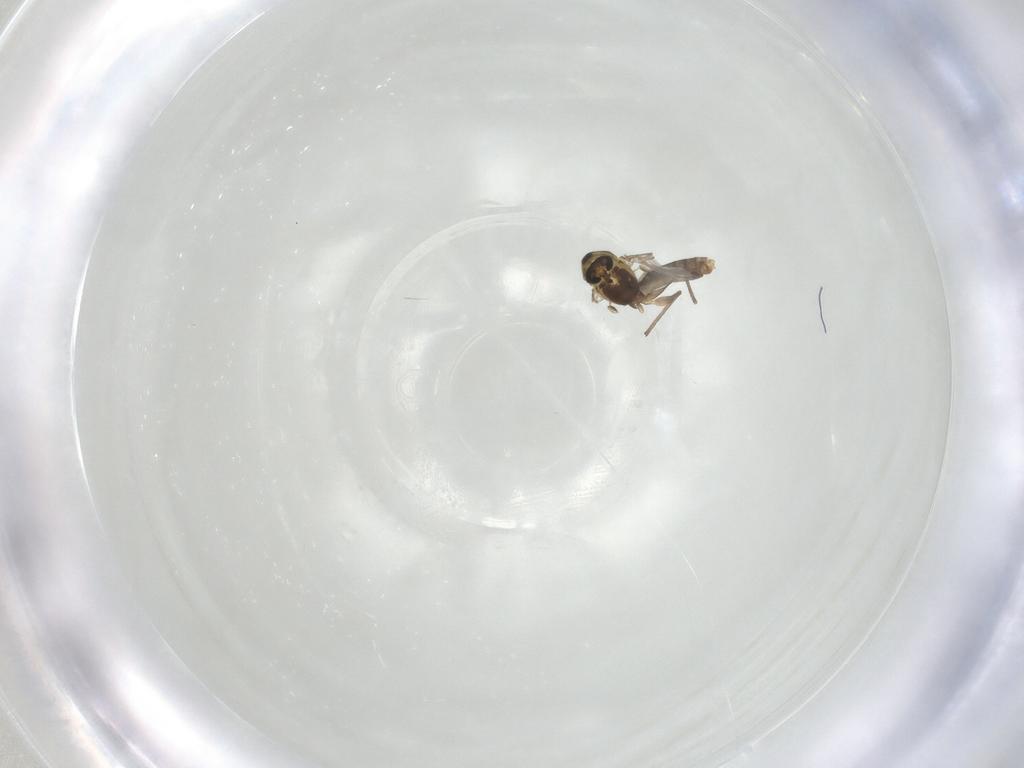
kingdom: Animalia
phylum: Arthropoda
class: Insecta
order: Diptera
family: Chironomidae
